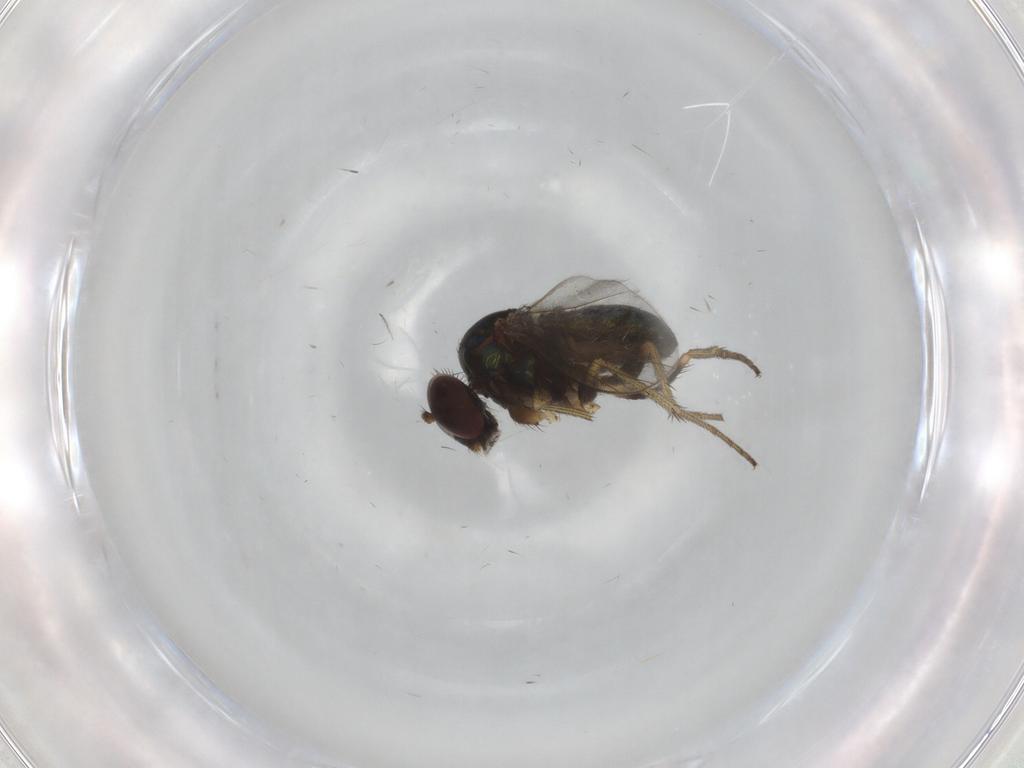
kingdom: Animalia
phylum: Arthropoda
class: Insecta
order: Diptera
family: Dolichopodidae
